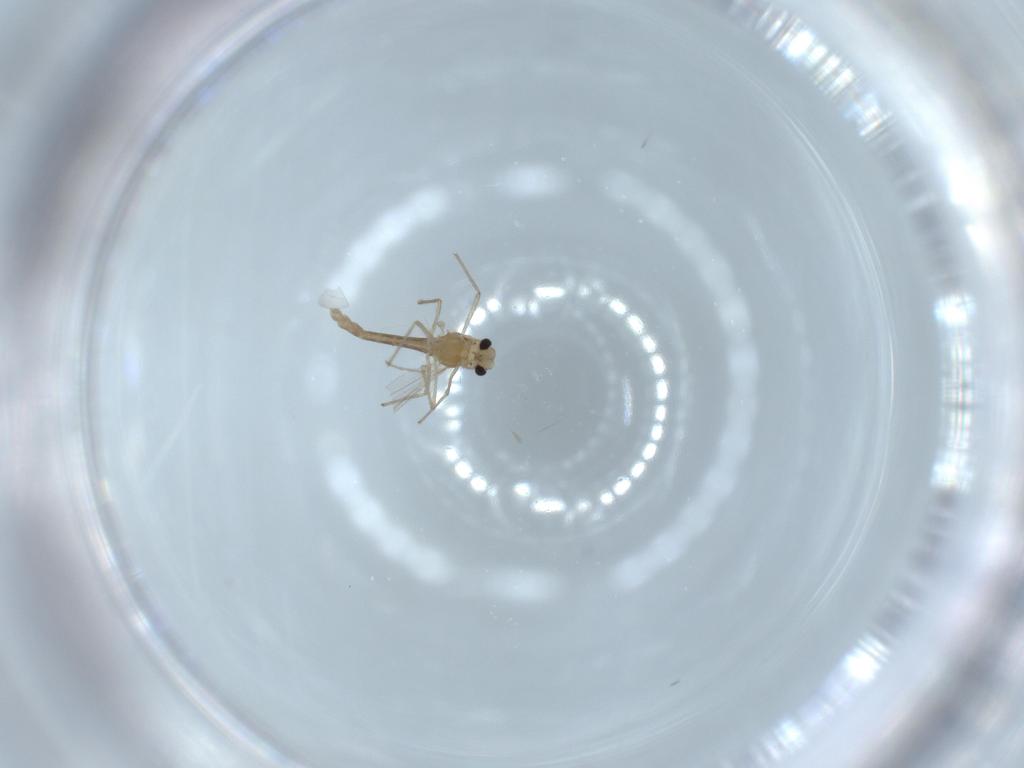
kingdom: Animalia
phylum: Arthropoda
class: Insecta
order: Diptera
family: Chironomidae
